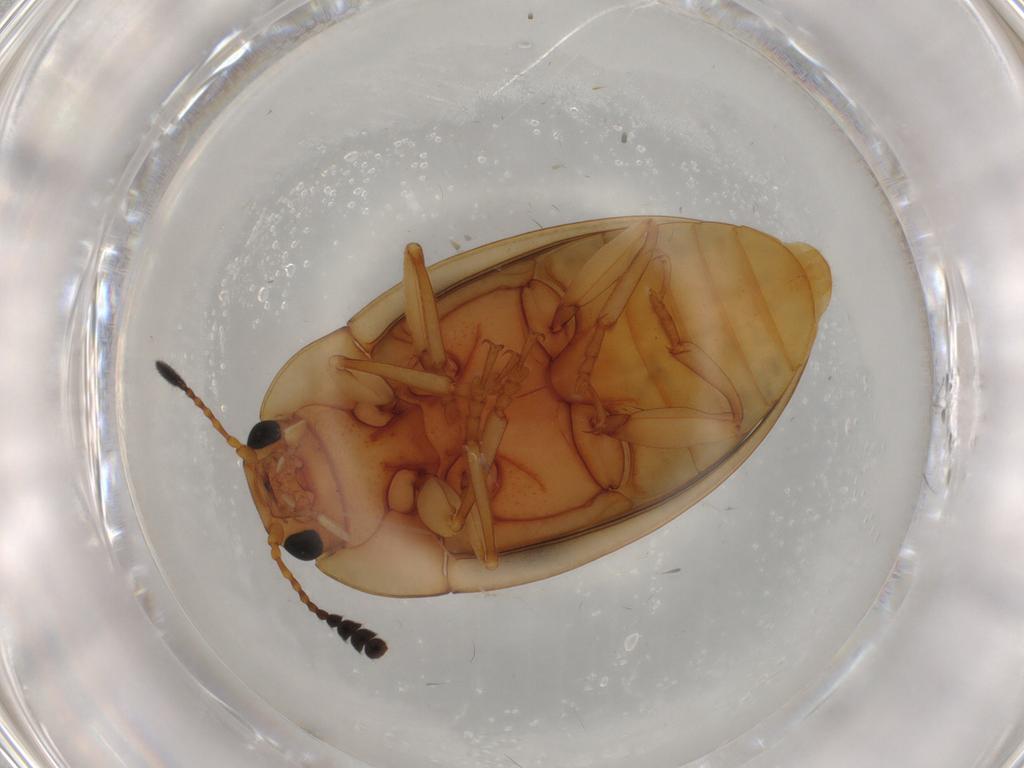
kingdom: Animalia
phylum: Arthropoda
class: Insecta
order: Coleoptera
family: Erotylidae
